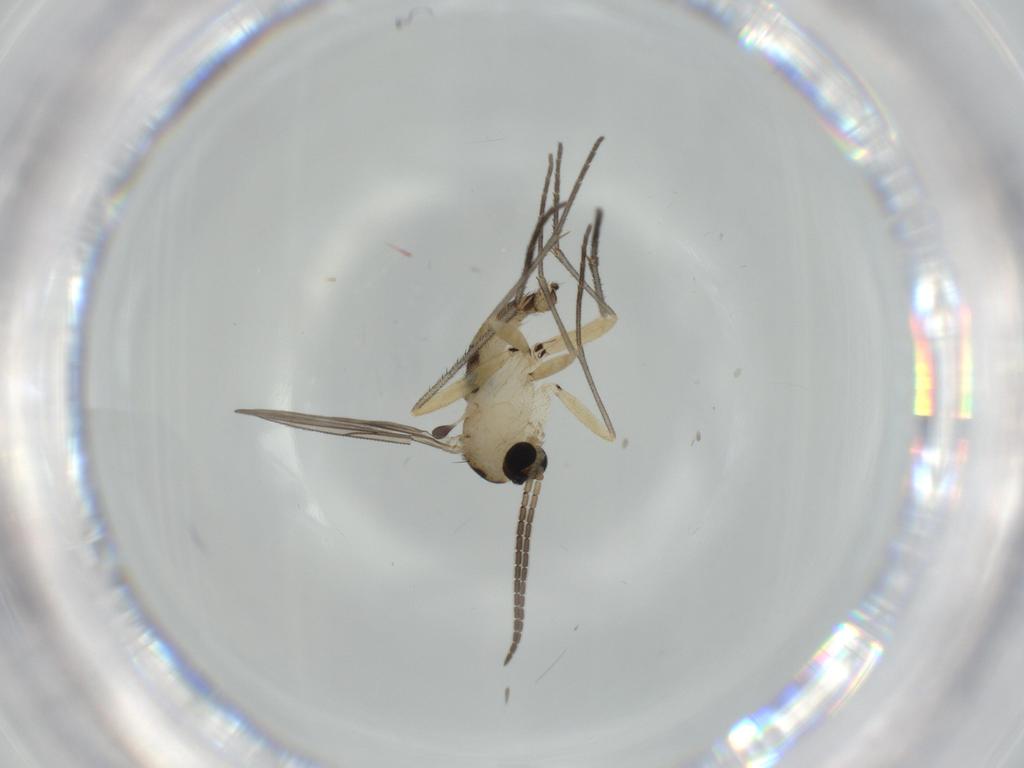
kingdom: Animalia
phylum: Arthropoda
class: Insecta
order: Diptera
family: Sciaridae
